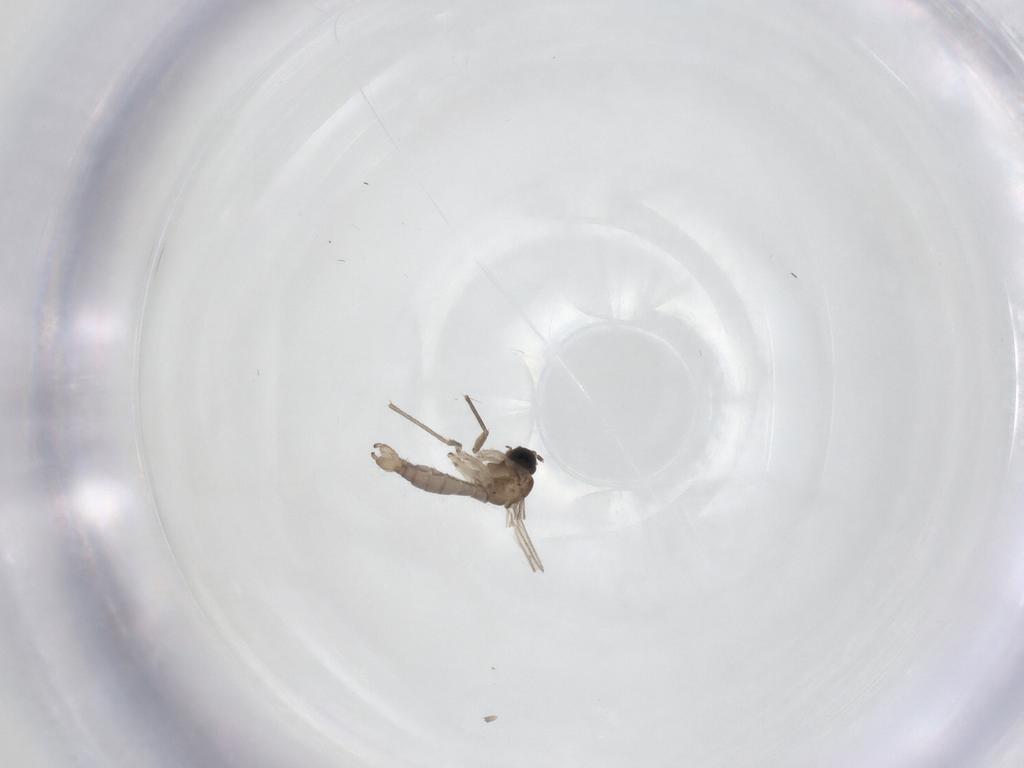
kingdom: Animalia
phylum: Arthropoda
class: Insecta
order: Diptera
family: Sciaridae
